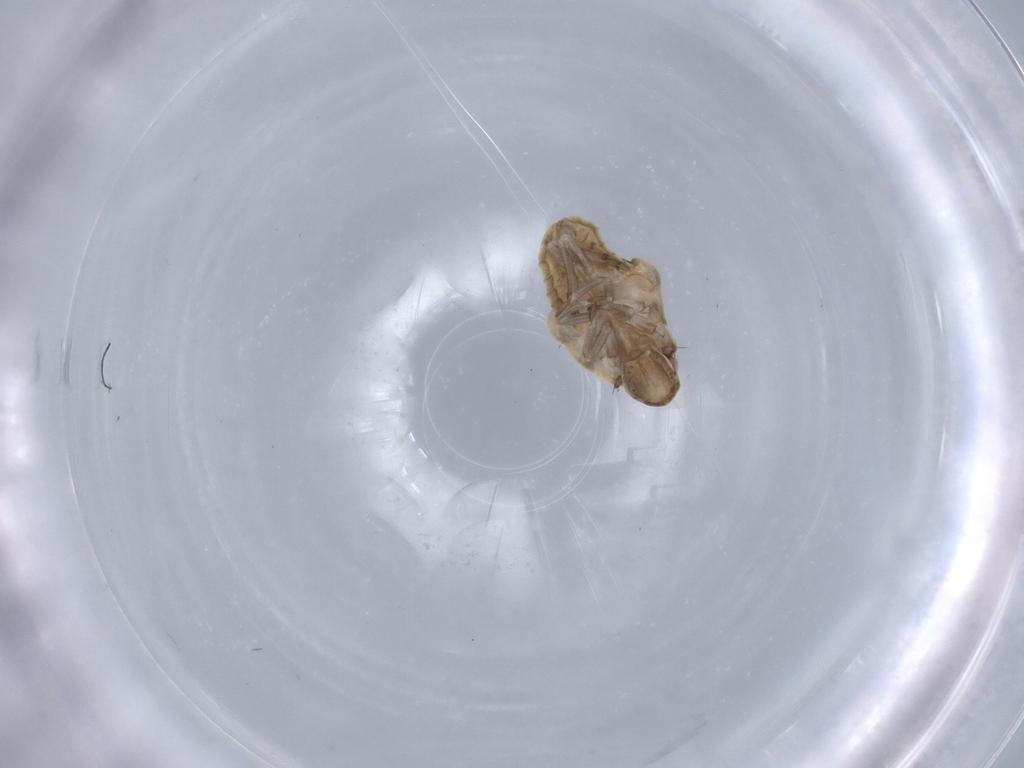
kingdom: Animalia
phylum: Arthropoda
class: Insecta
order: Hemiptera
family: Flatidae
